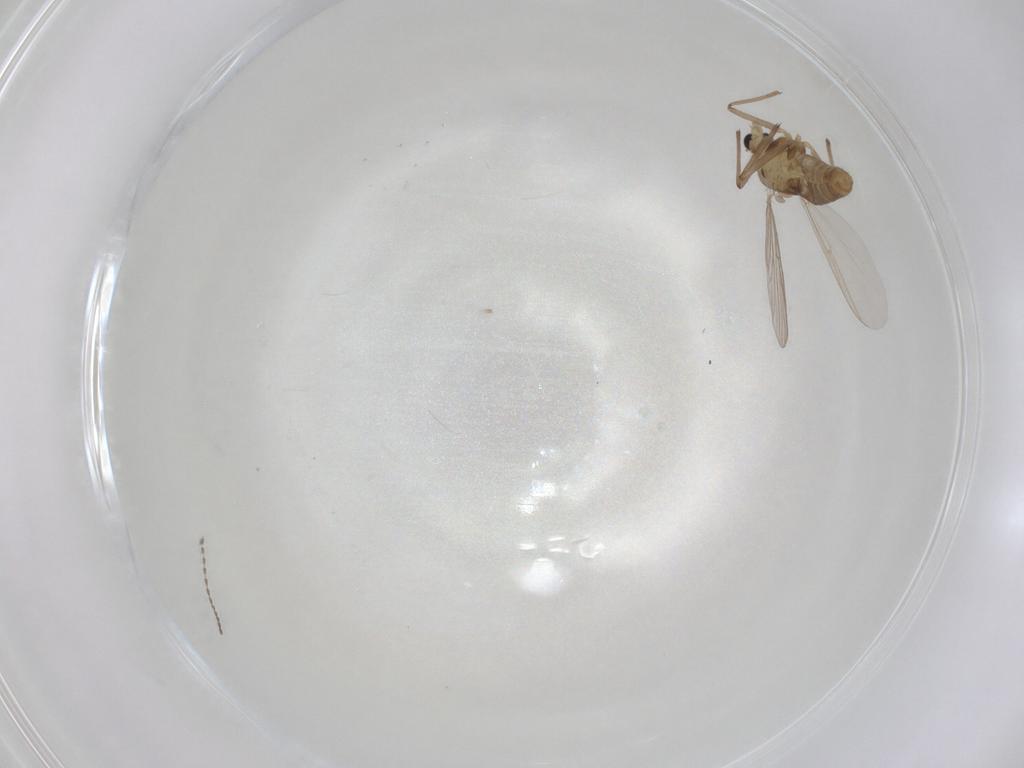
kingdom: Animalia
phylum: Arthropoda
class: Insecta
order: Diptera
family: Chironomidae
